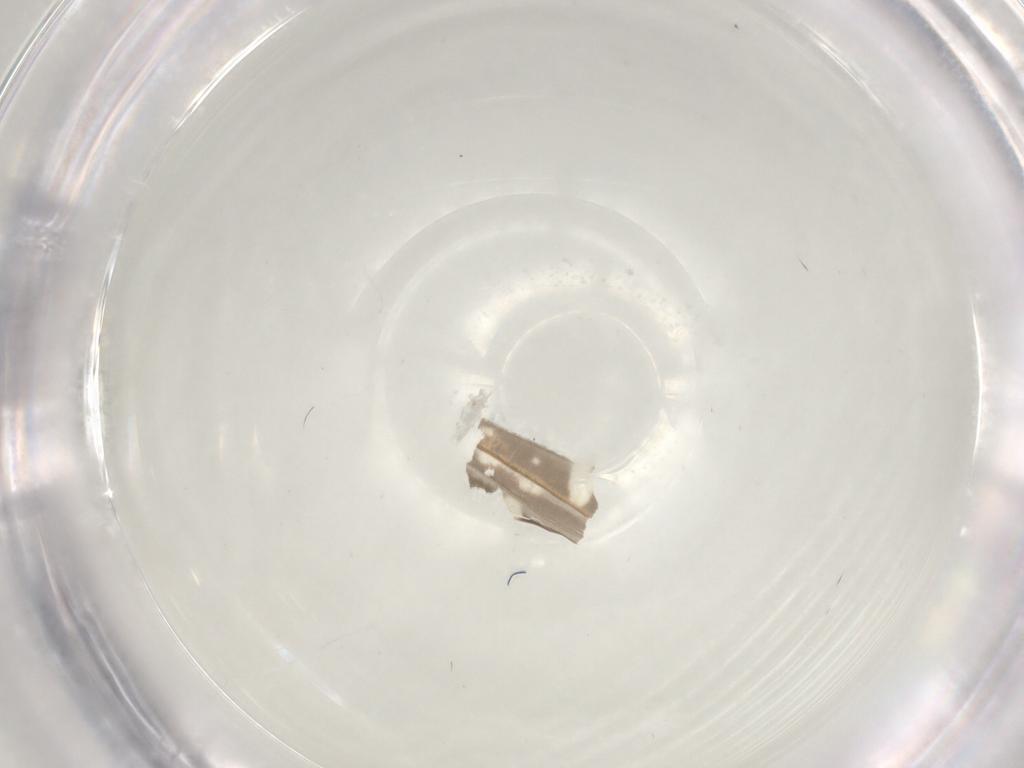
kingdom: Animalia
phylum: Arthropoda
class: Insecta
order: Diptera
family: Limoniidae
